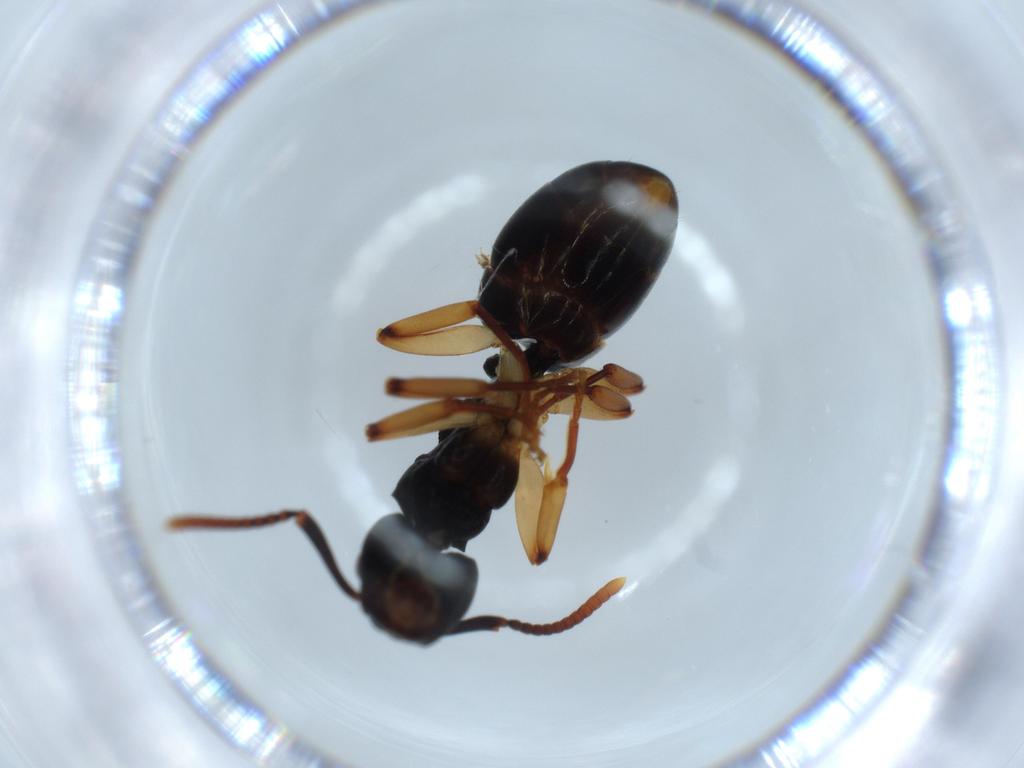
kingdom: Animalia
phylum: Arthropoda
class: Insecta
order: Hymenoptera
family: Formicidae
